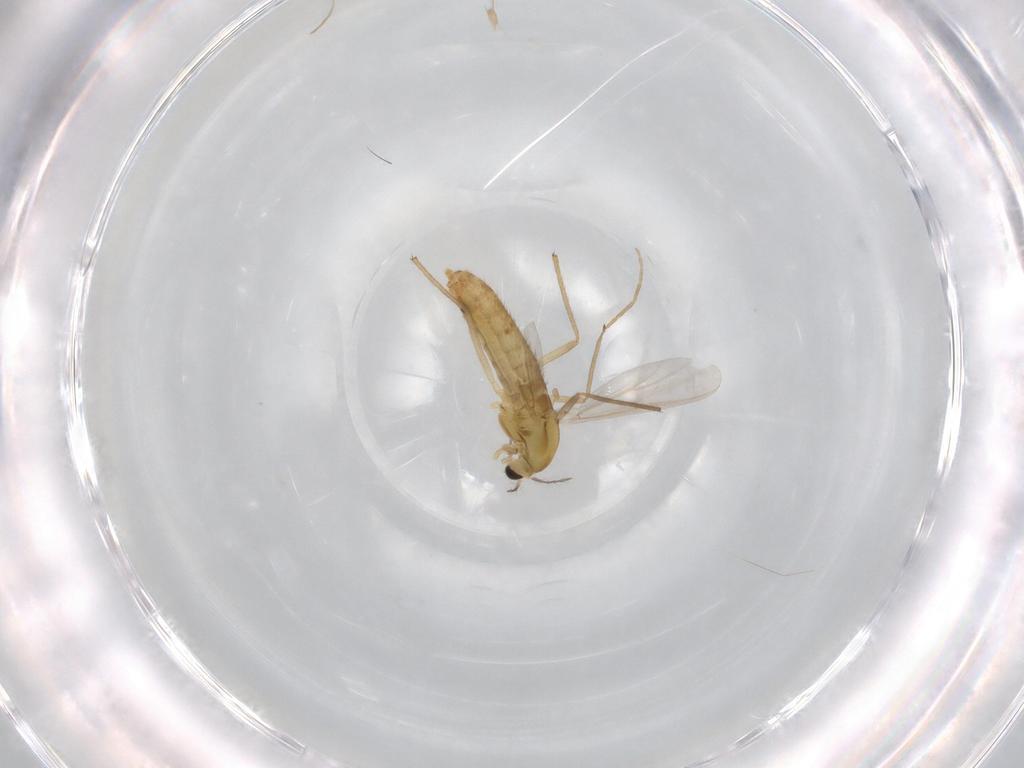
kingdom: Animalia
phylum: Arthropoda
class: Insecta
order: Diptera
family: Chironomidae
